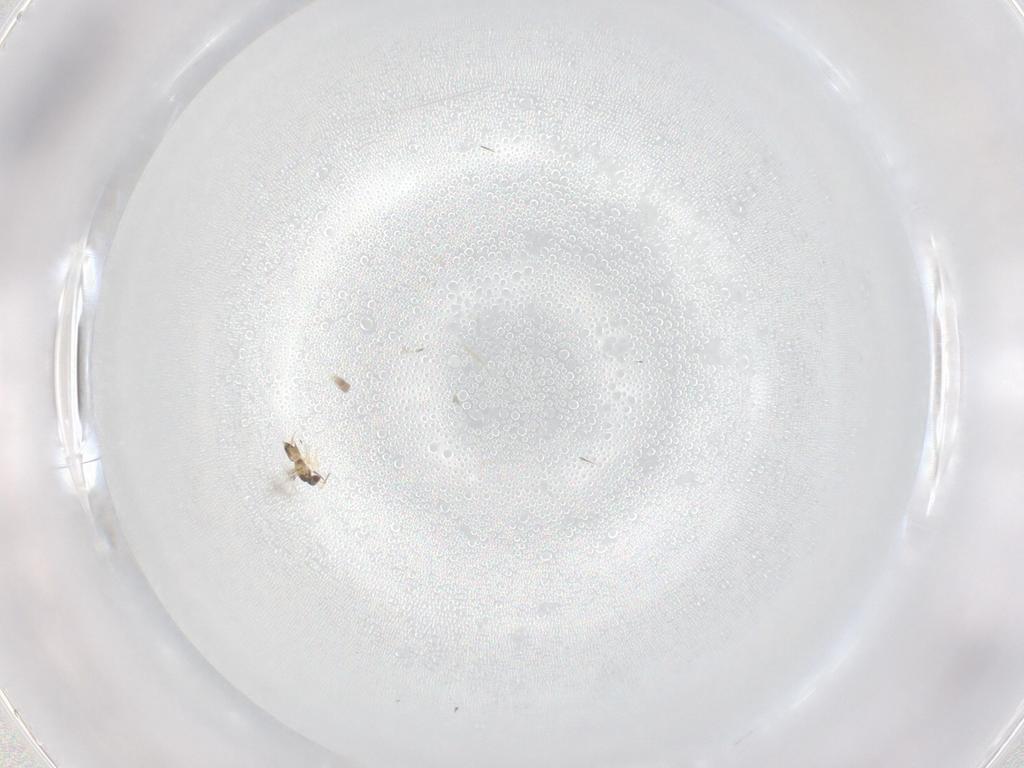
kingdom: Animalia
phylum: Arthropoda
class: Insecta
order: Hymenoptera
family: Mymaridae
